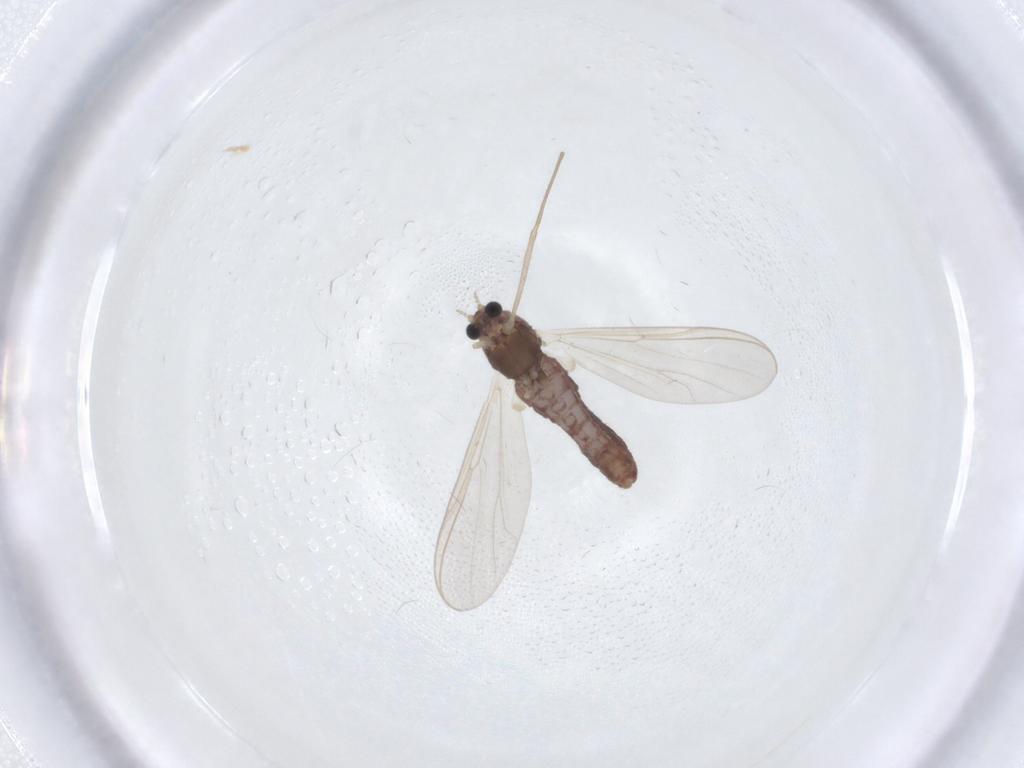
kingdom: Animalia
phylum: Arthropoda
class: Insecta
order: Diptera
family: Chironomidae
